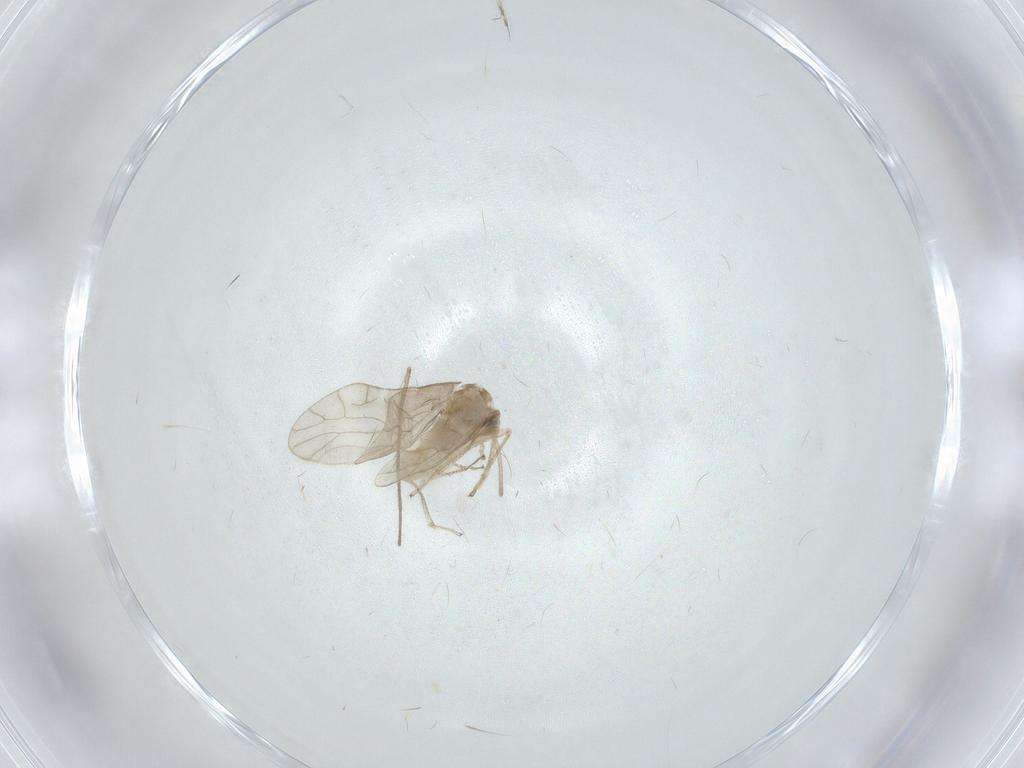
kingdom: Animalia
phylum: Arthropoda
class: Insecta
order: Psocodea
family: Caeciliusidae
